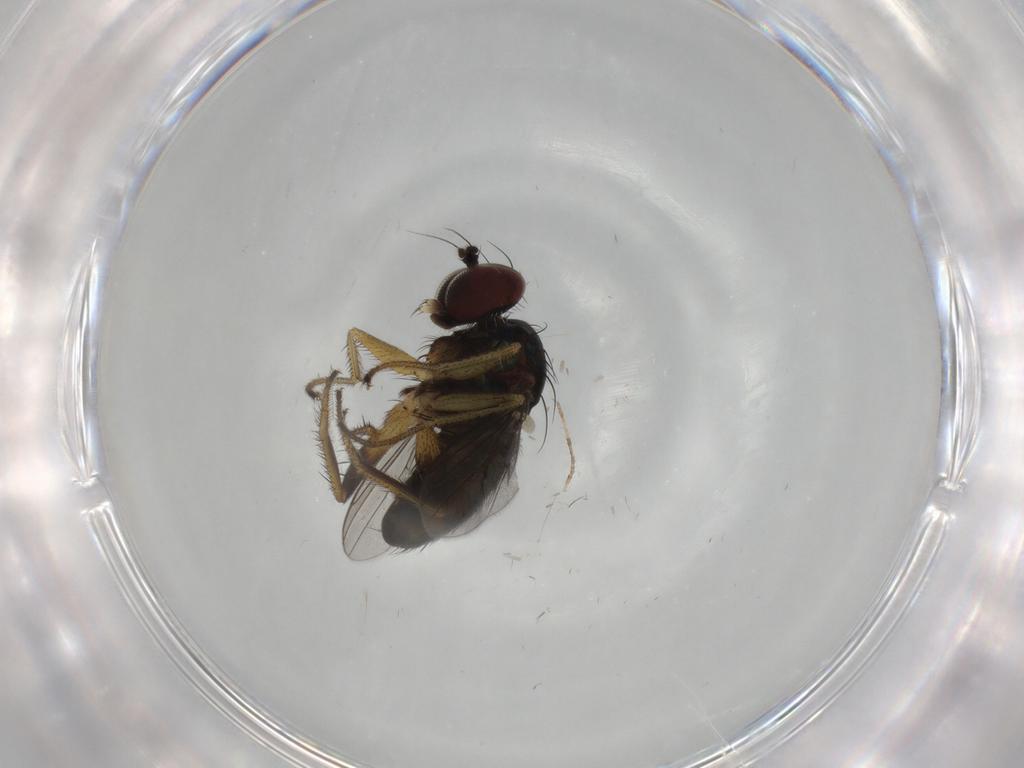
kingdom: Animalia
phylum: Arthropoda
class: Insecta
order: Diptera
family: Dolichopodidae
